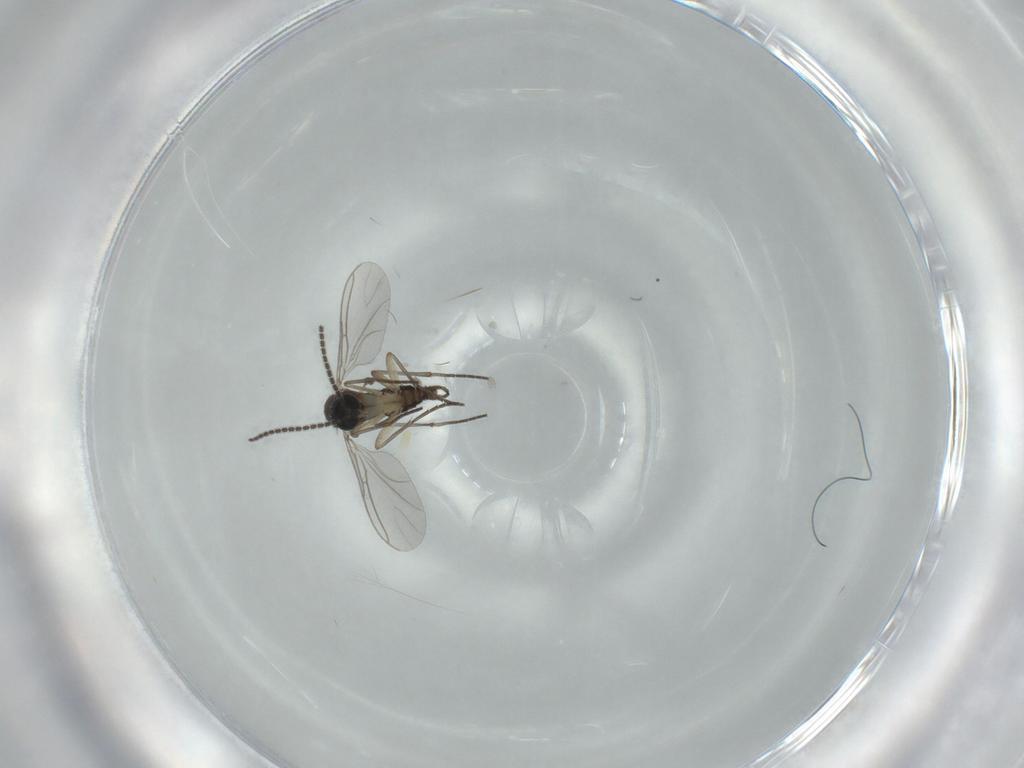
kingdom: Animalia
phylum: Arthropoda
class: Insecta
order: Diptera
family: Sciaridae
